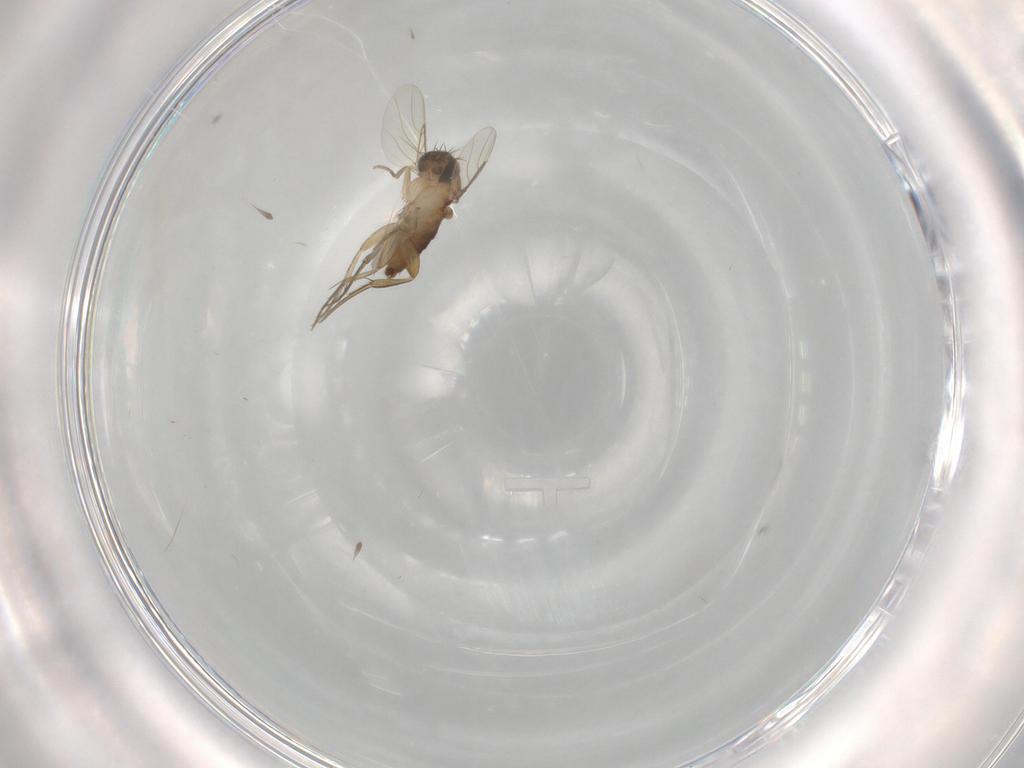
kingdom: Animalia
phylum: Arthropoda
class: Insecta
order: Diptera
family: Phoridae
